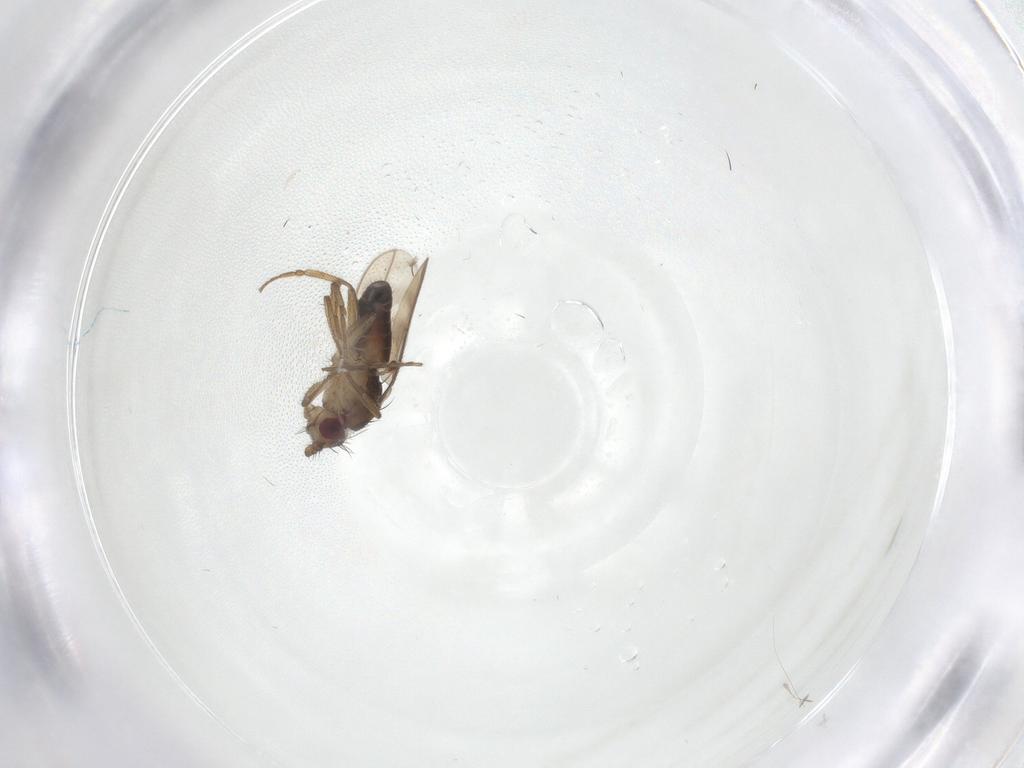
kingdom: Animalia
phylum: Arthropoda
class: Insecta
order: Diptera
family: Sphaeroceridae
